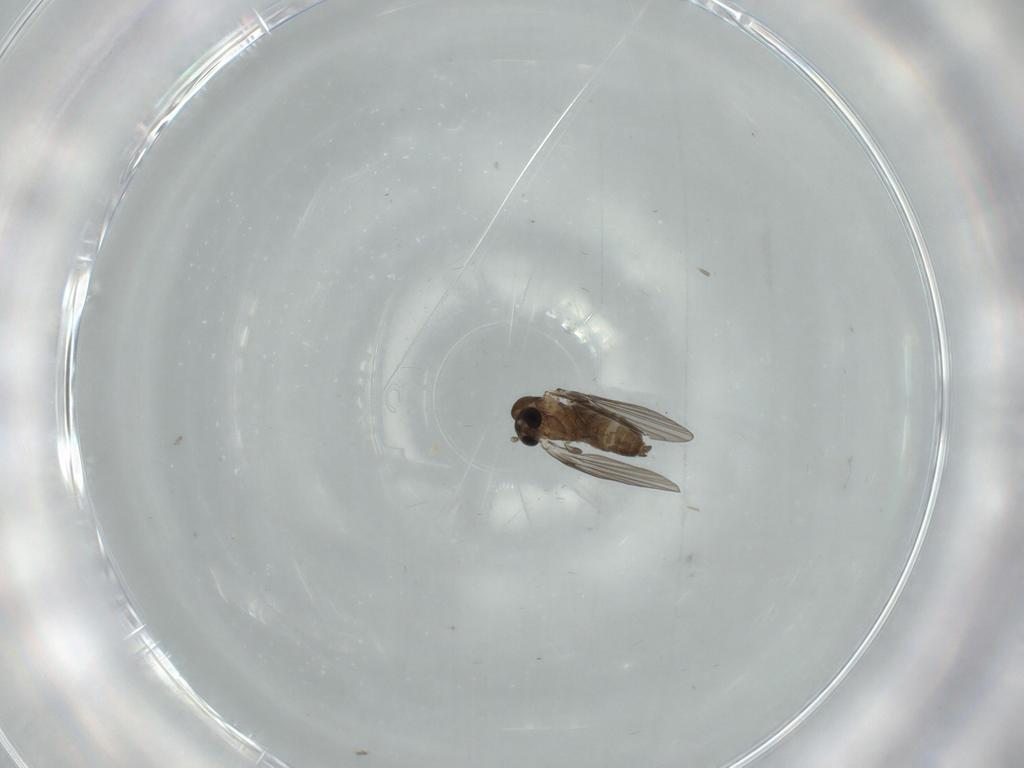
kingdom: Animalia
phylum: Arthropoda
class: Insecta
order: Diptera
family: Psychodidae
